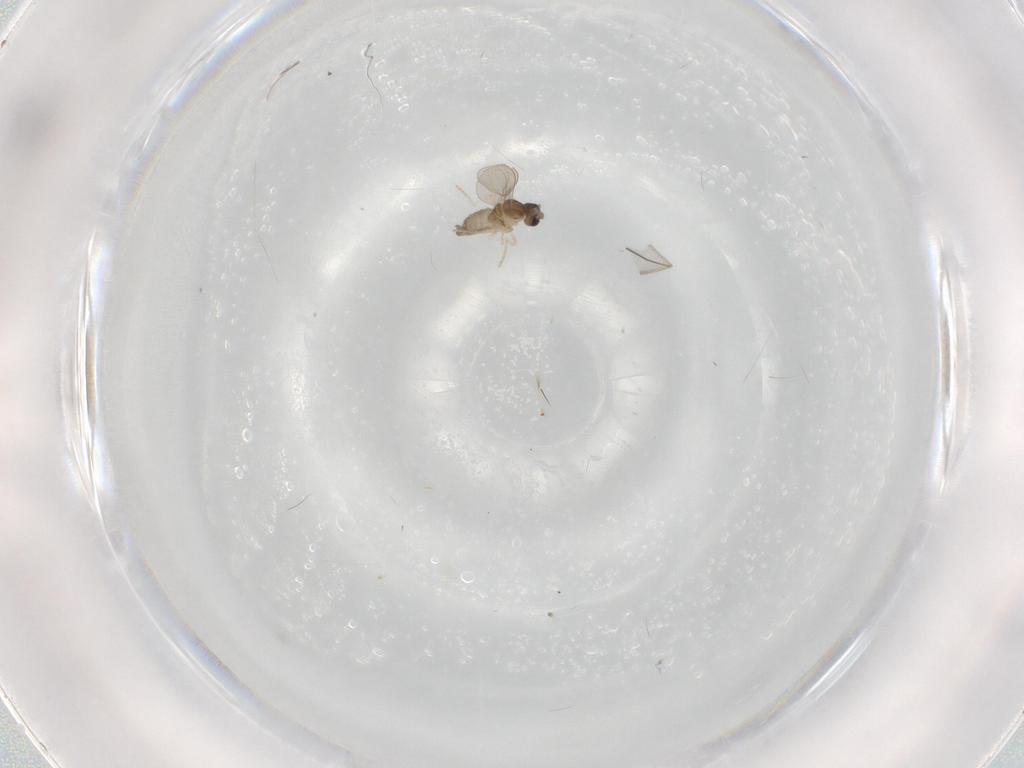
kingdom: Animalia
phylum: Arthropoda
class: Insecta
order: Diptera
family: Cecidomyiidae
